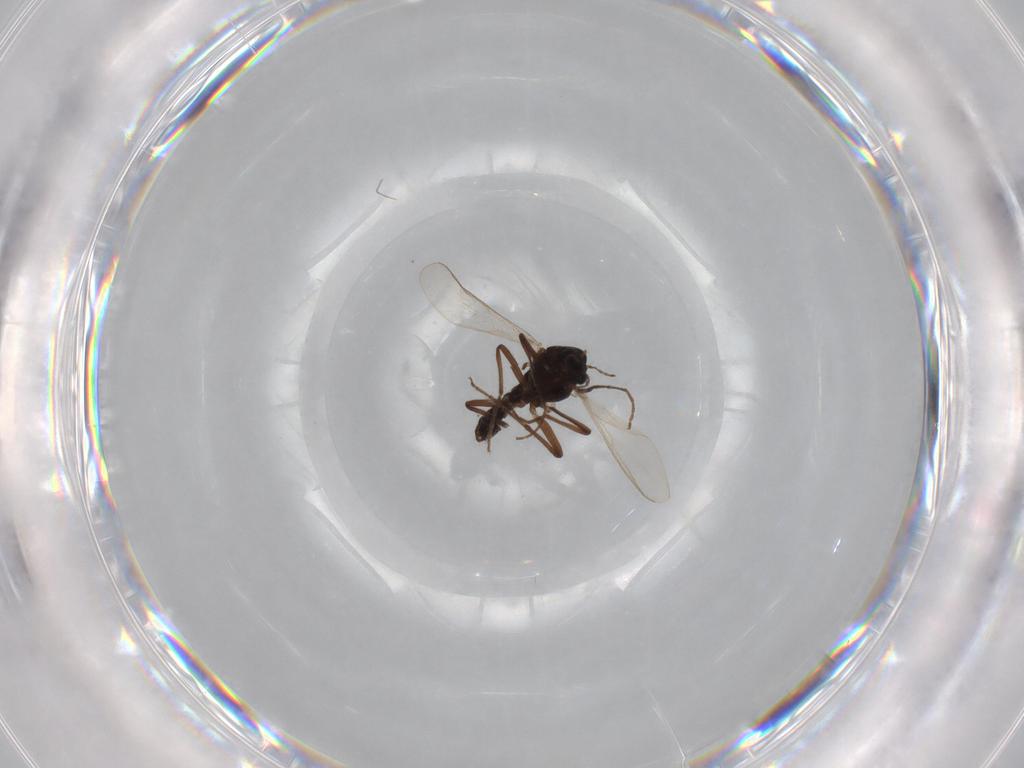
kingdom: Animalia
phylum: Arthropoda
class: Insecta
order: Diptera
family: Chironomidae
